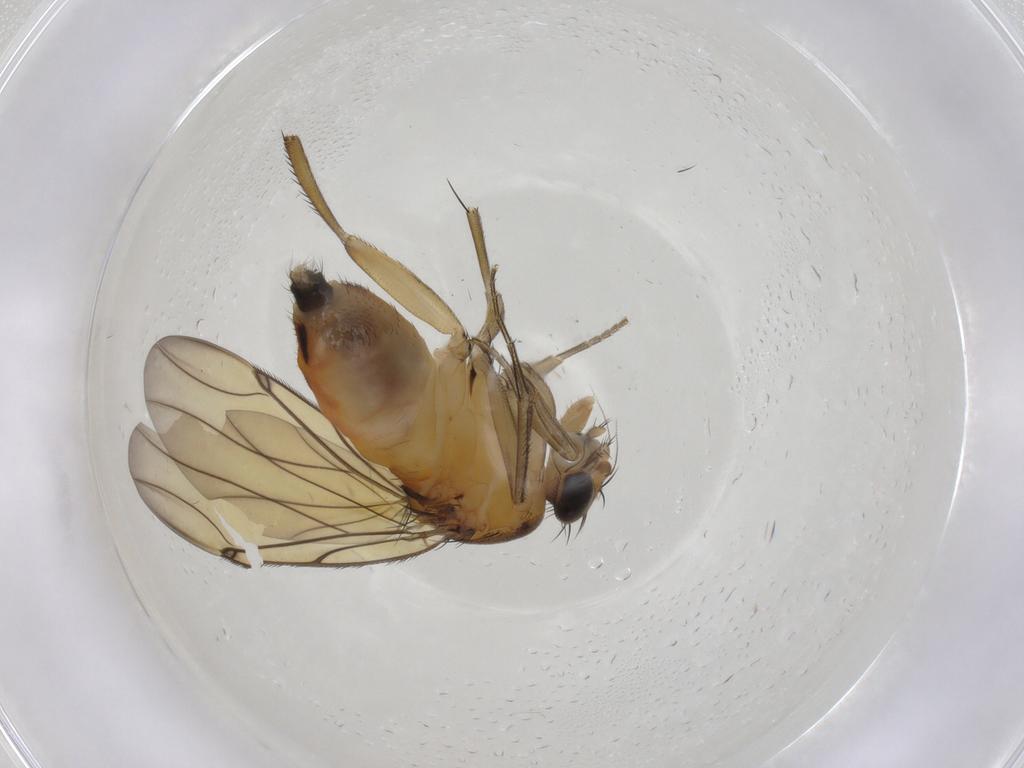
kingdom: Animalia
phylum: Arthropoda
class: Insecta
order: Diptera
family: Phoridae
